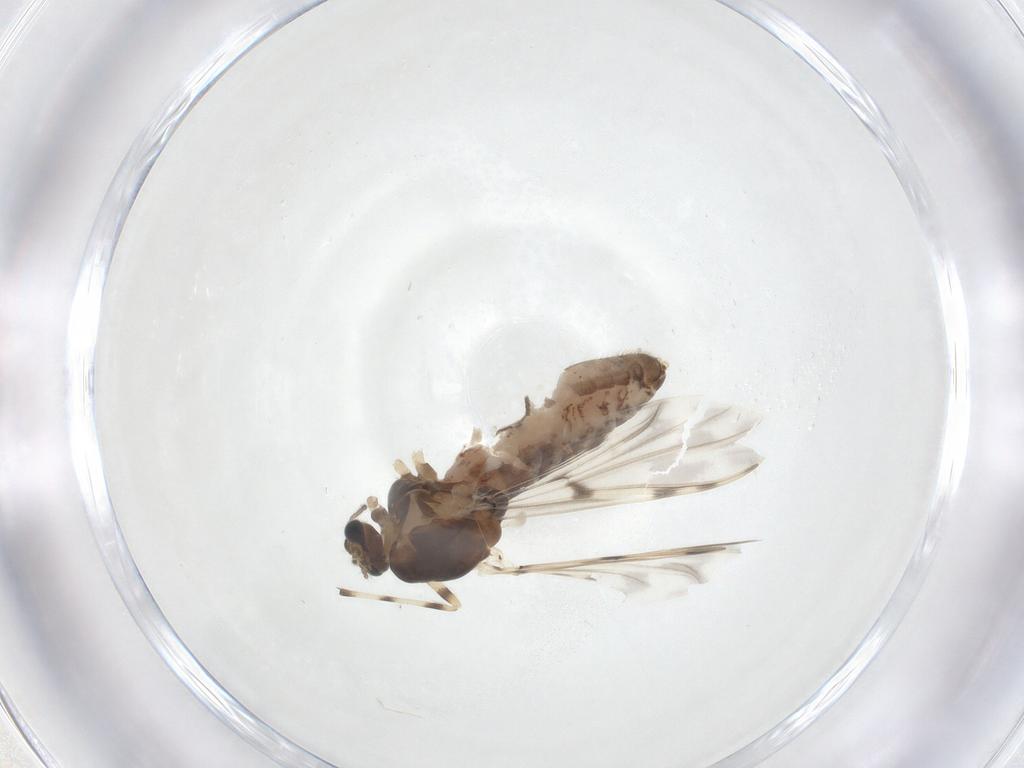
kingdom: Animalia
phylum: Arthropoda
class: Insecta
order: Diptera
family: Chironomidae
